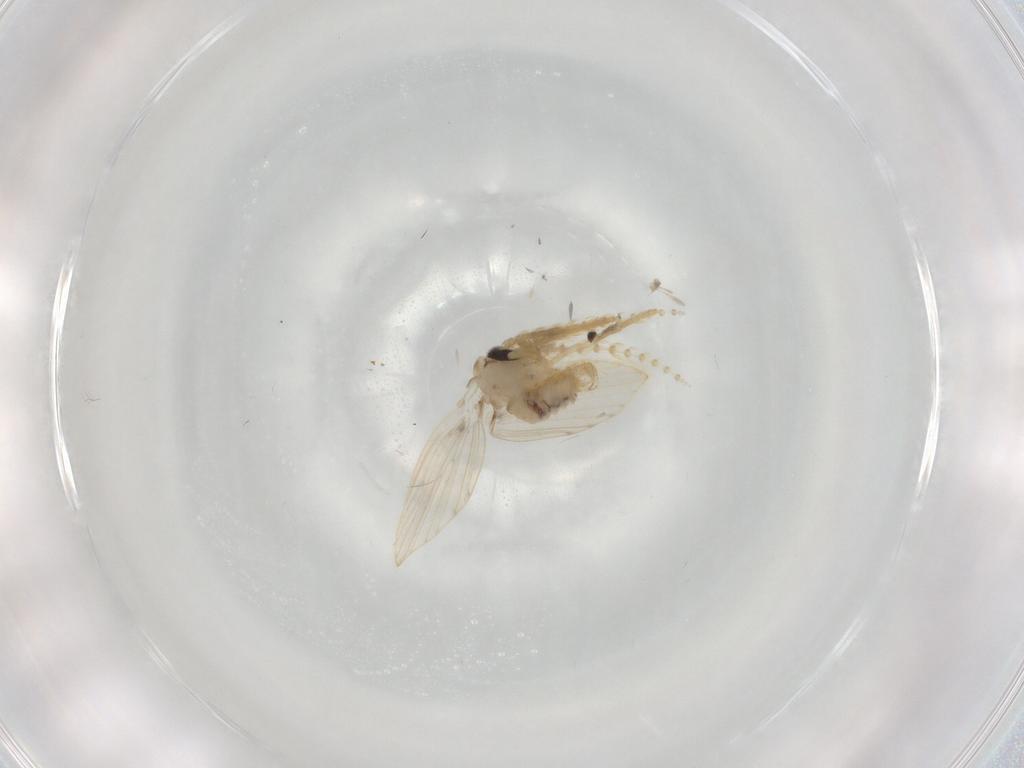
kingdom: Animalia
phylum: Arthropoda
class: Insecta
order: Diptera
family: Psychodidae
